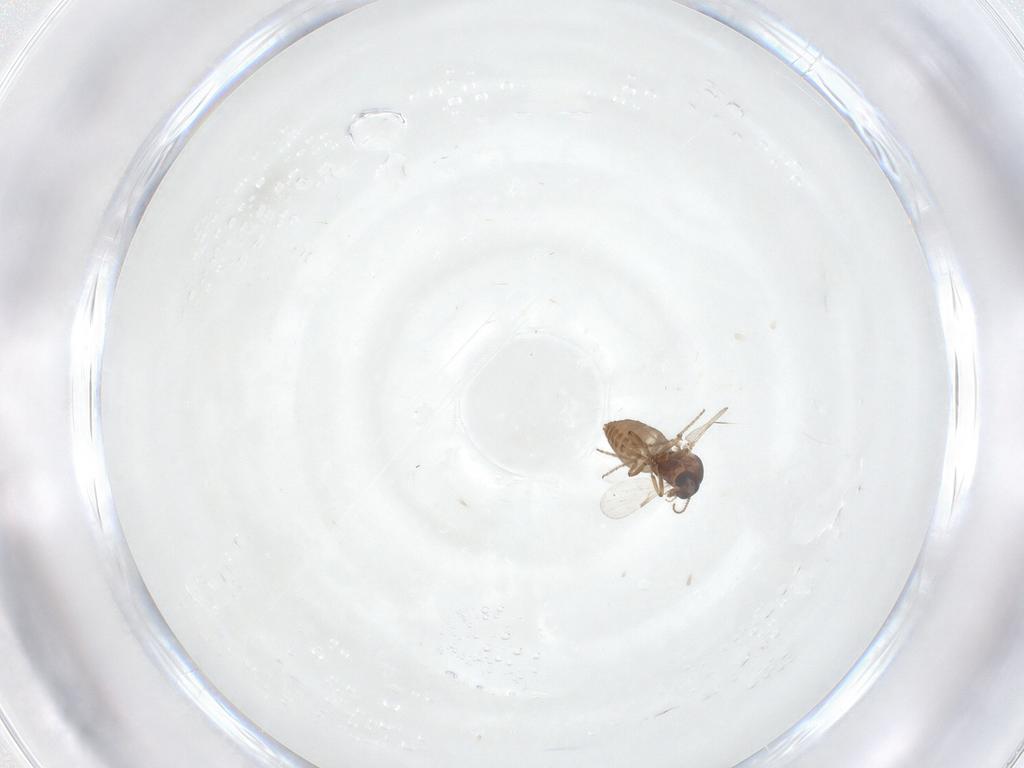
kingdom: Animalia
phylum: Arthropoda
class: Insecta
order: Diptera
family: Ceratopogonidae
